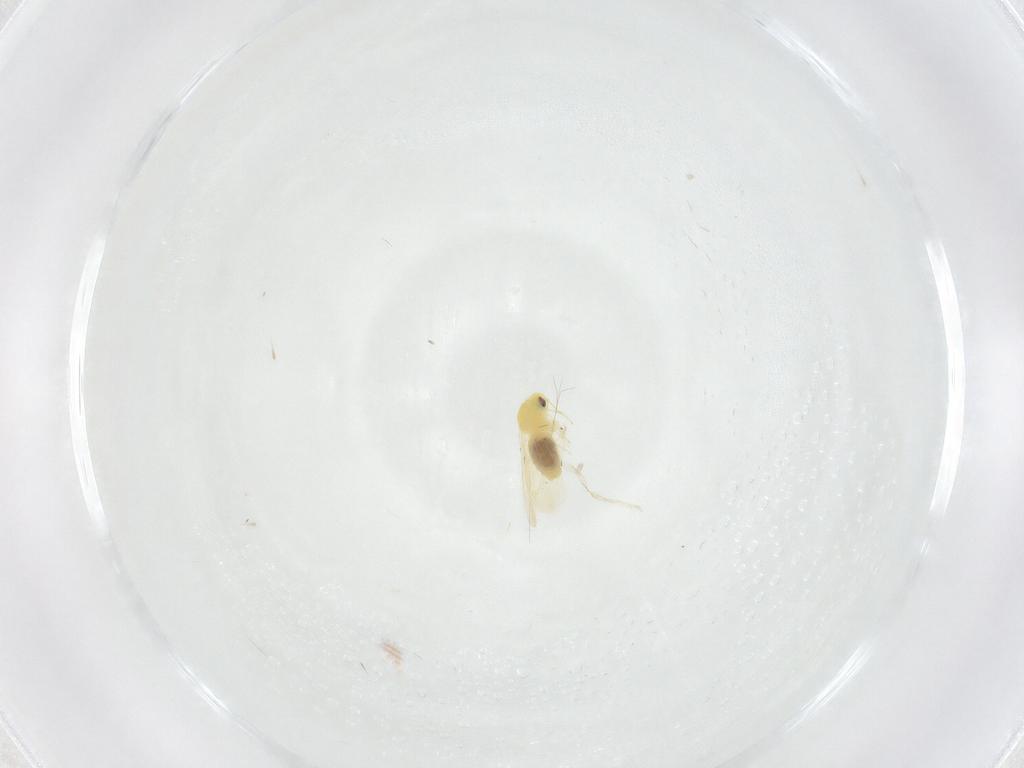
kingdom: Animalia
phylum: Arthropoda
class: Insecta
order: Hemiptera
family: Aleyrodidae
